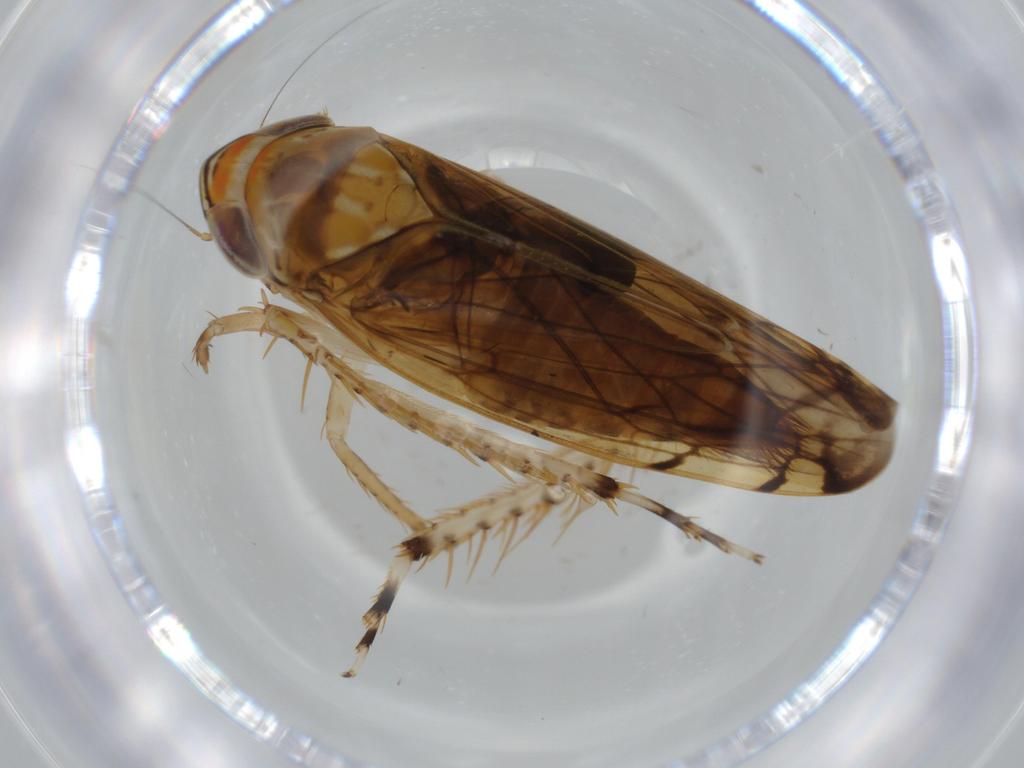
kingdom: Animalia
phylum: Arthropoda
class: Insecta
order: Hemiptera
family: Cicadellidae
